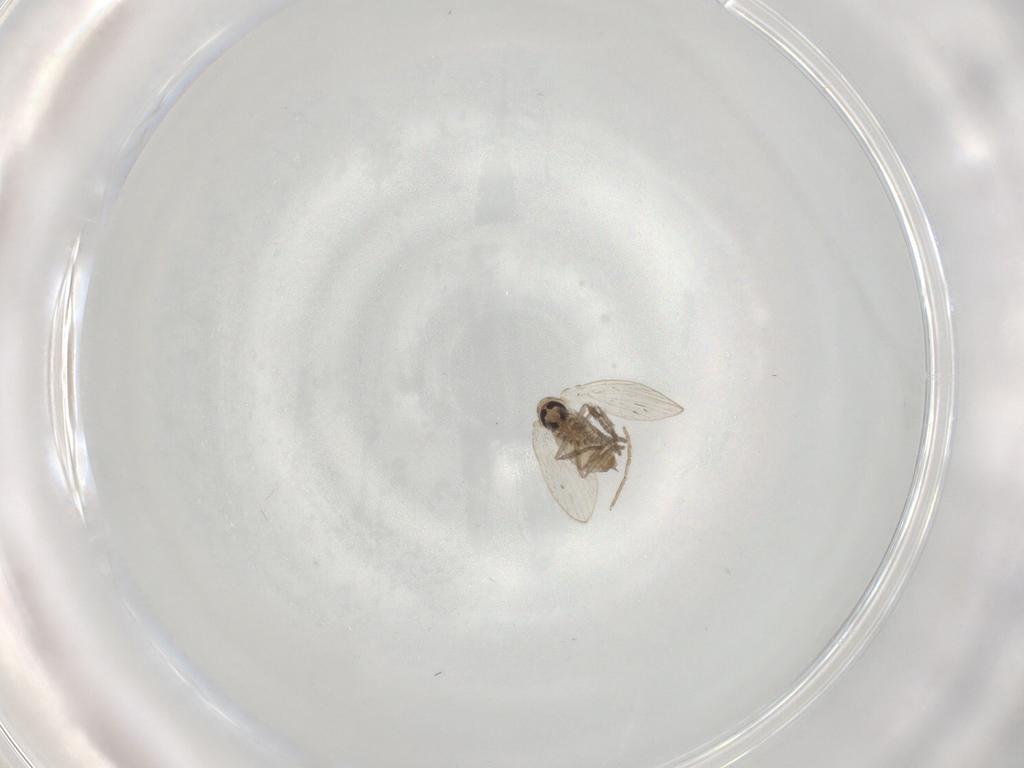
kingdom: Animalia
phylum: Arthropoda
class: Insecta
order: Diptera
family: Psychodidae
